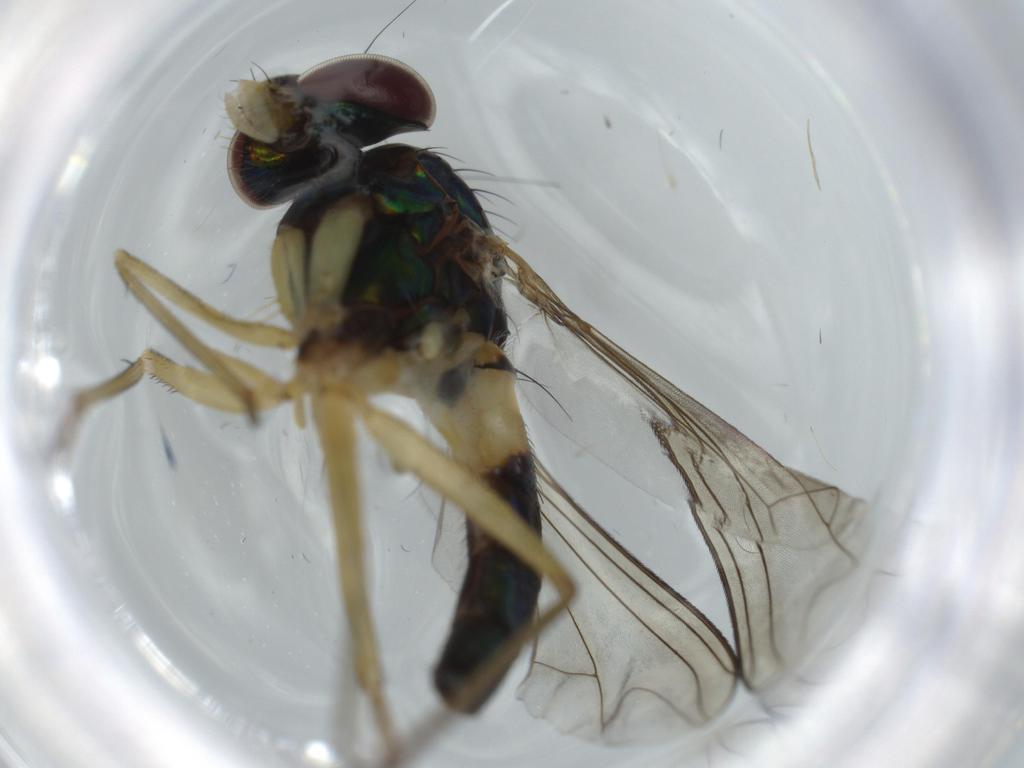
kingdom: Animalia
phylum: Arthropoda
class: Insecta
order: Diptera
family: Dolichopodidae
